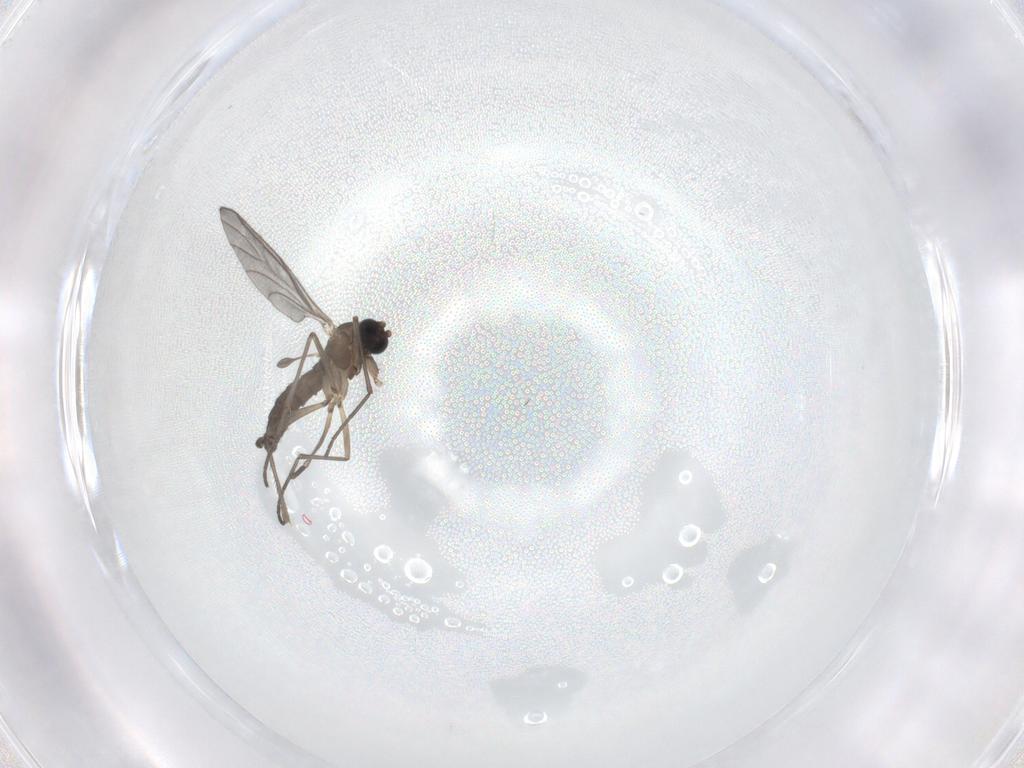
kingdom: Animalia
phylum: Arthropoda
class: Insecta
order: Diptera
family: Sciaridae
